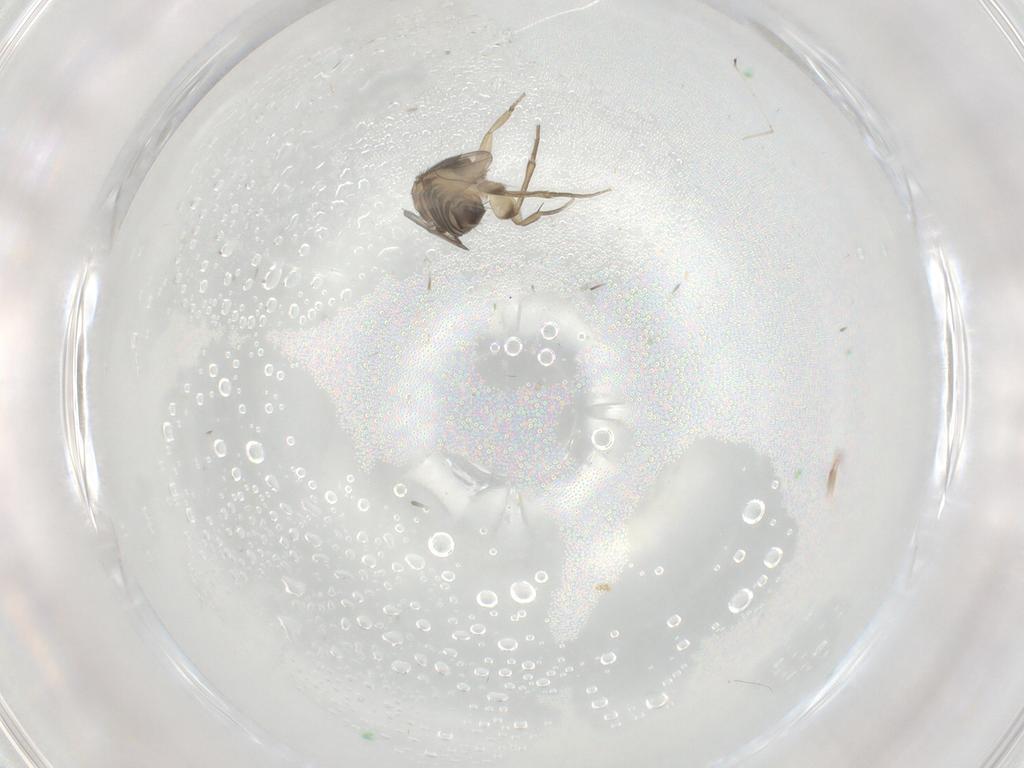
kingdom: Animalia
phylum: Arthropoda
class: Insecta
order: Diptera
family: Phoridae
